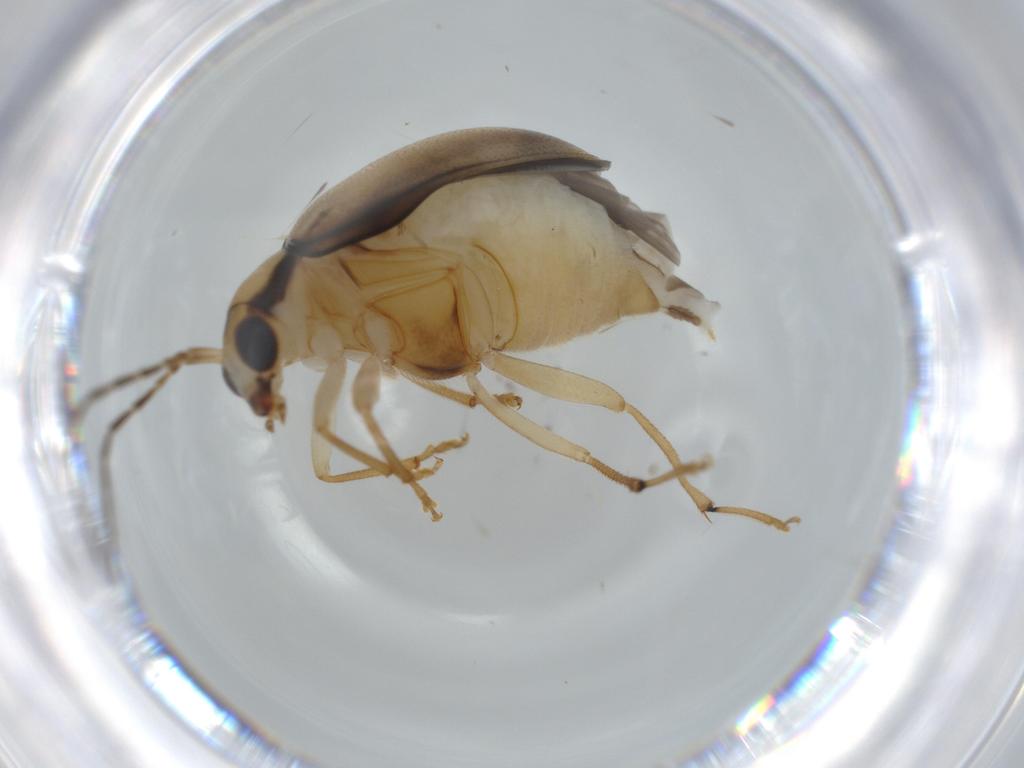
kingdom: Animalia
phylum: Arthropoda
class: Insecta
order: Coleoptera
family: Chrysomelidae
